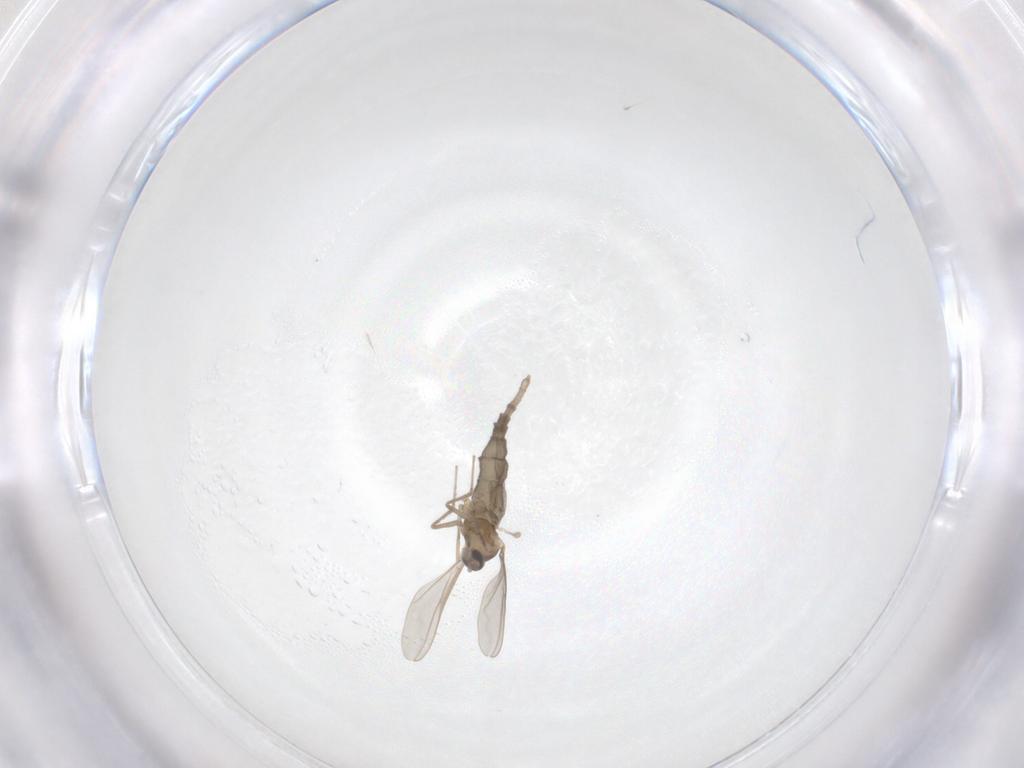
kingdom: Animalia
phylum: Arthropoda
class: Insecta
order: Diptera
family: Cecidomyiidae
